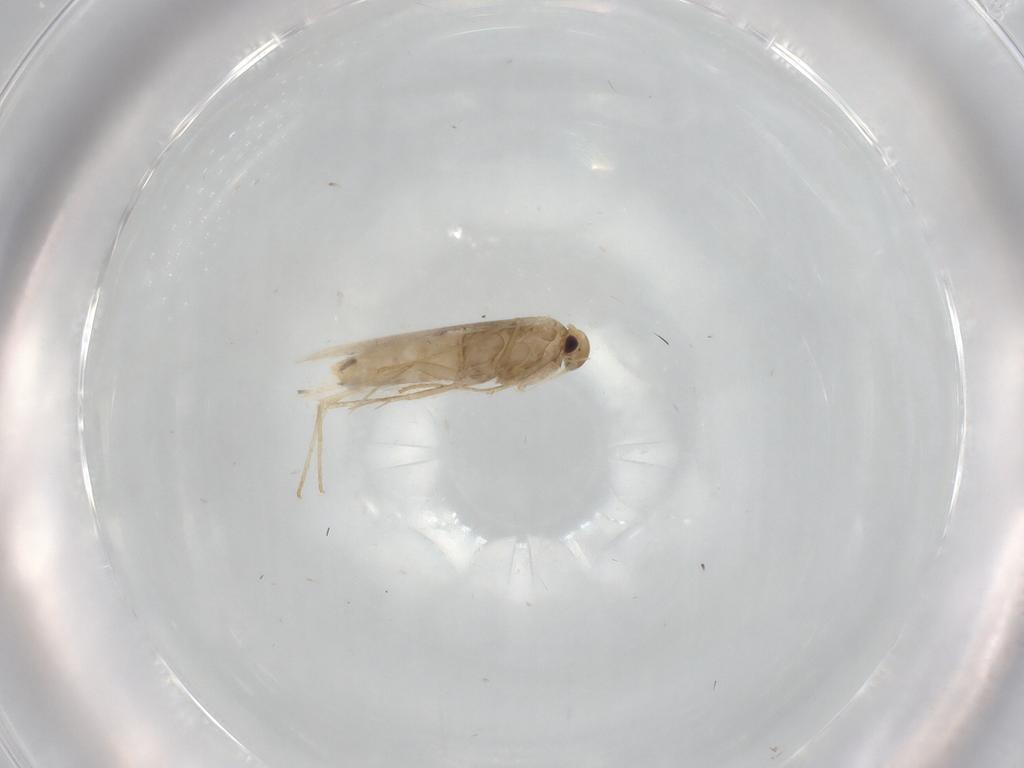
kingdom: Animalia
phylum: Arthropoda
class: Insecta
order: Lepidoptera
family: Gracillariidae
